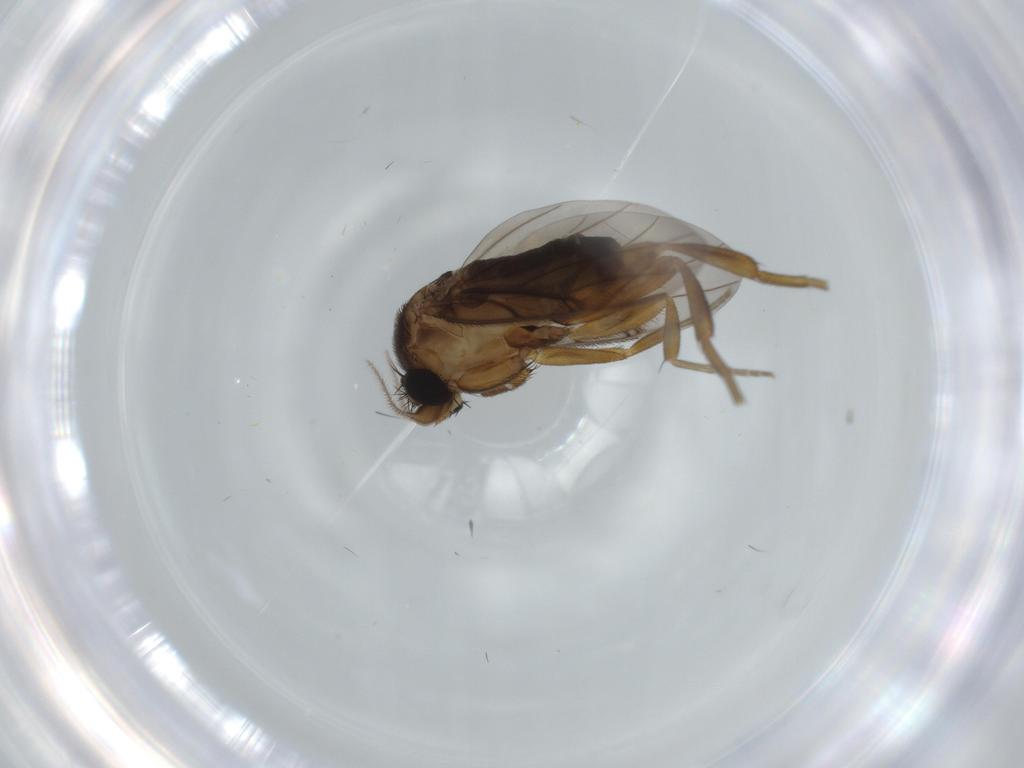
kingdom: Animalia
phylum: Arthropoda
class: Insecta
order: Diptera
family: Phoridae
